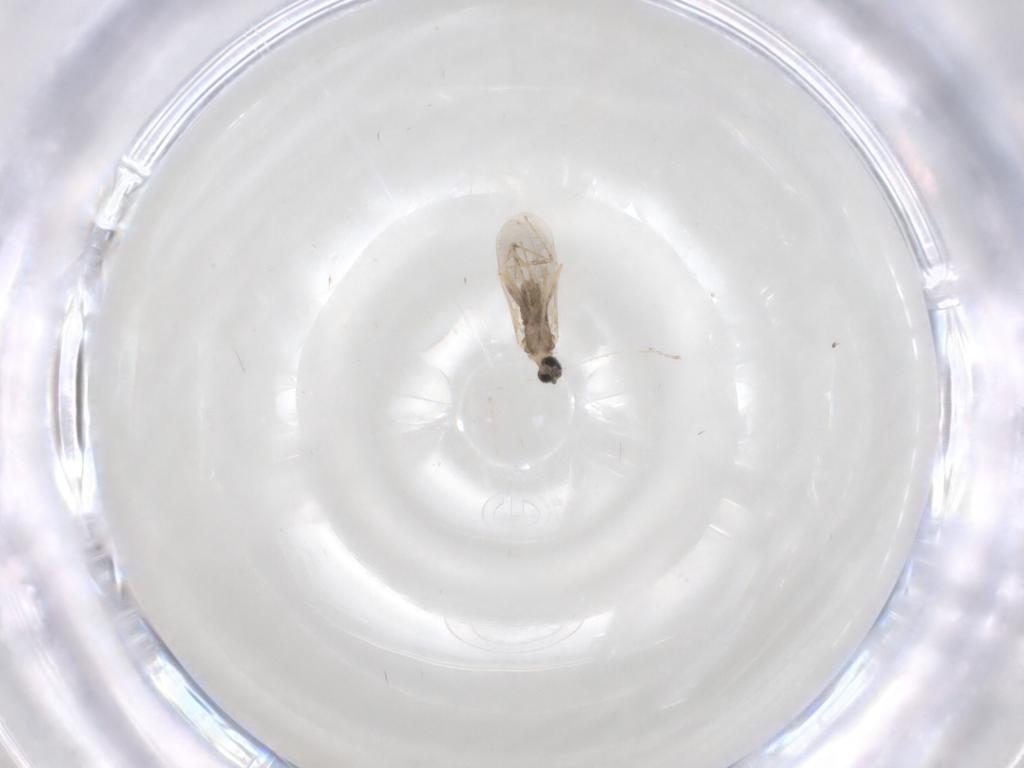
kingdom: Animalia
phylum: Arthropoda
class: Insecta
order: Diptera
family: Cecidomyiidae
